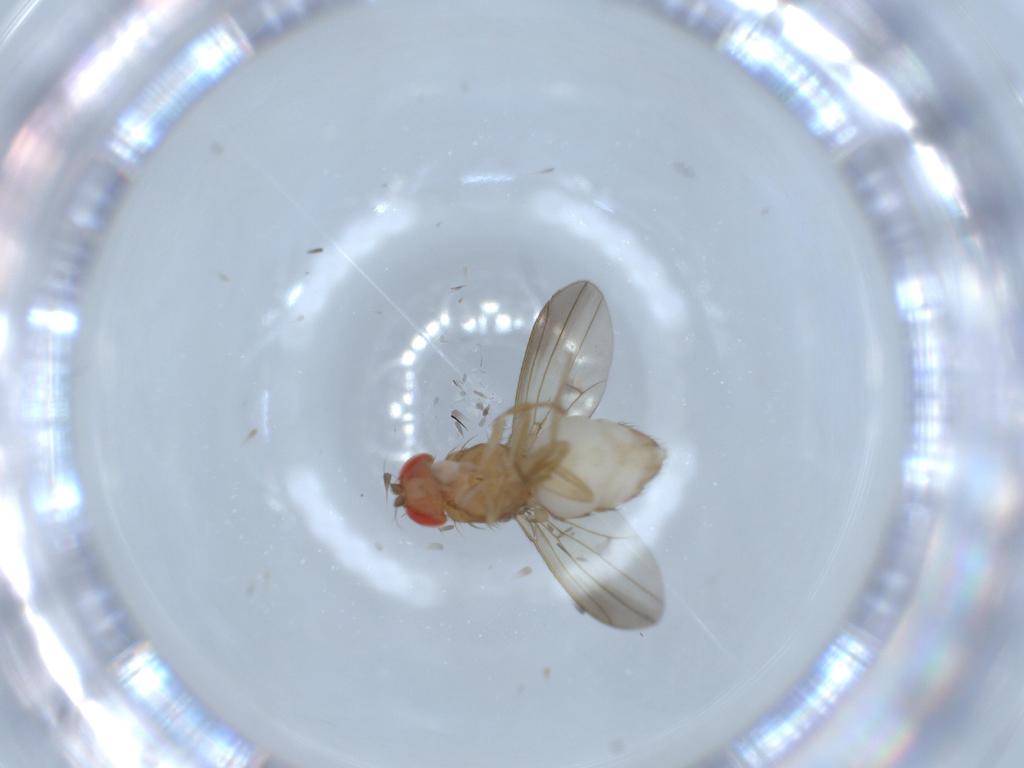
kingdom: Animalia
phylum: Arthropoda
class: Insecta
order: Diptera
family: Drosophilidae
